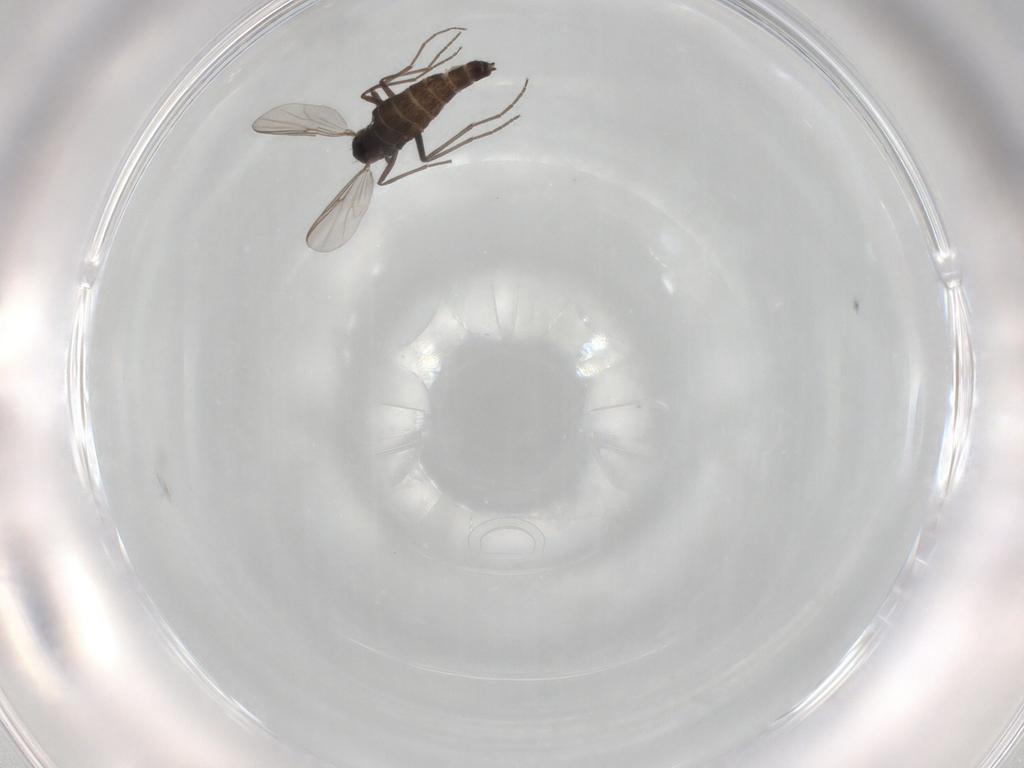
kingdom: Animalia
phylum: Arthropoda
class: Insecta
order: Diptera
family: Chironomidae
